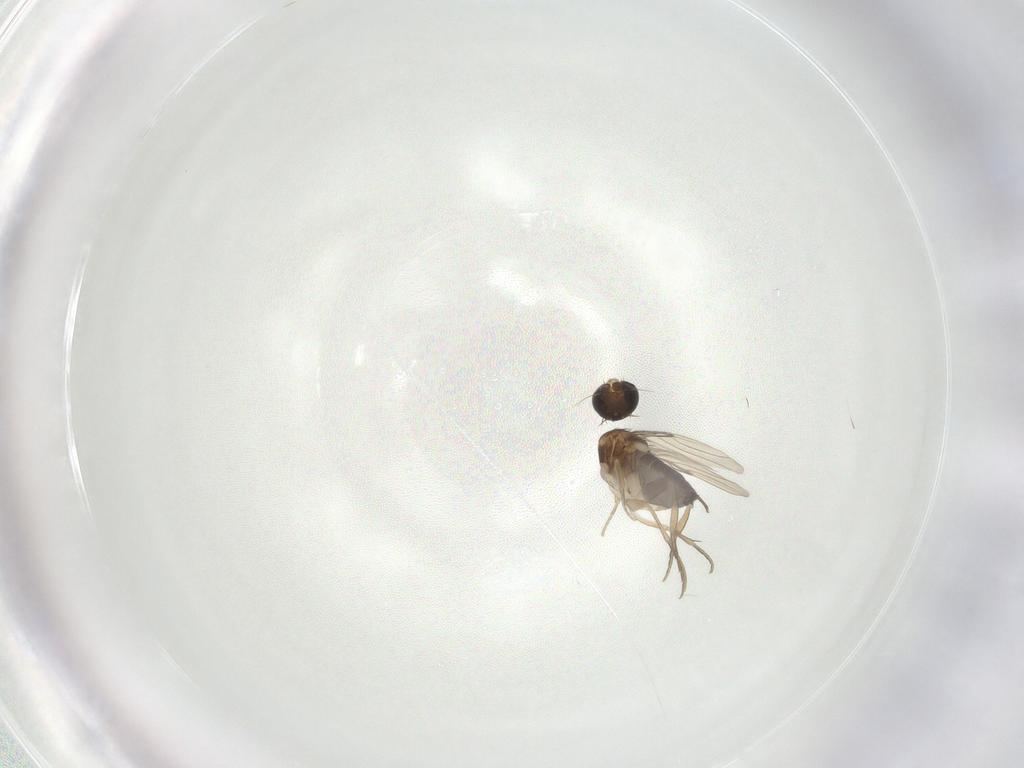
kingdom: Animalia
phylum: Arthropoda
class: Insecta
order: Diptera
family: Phoridae
